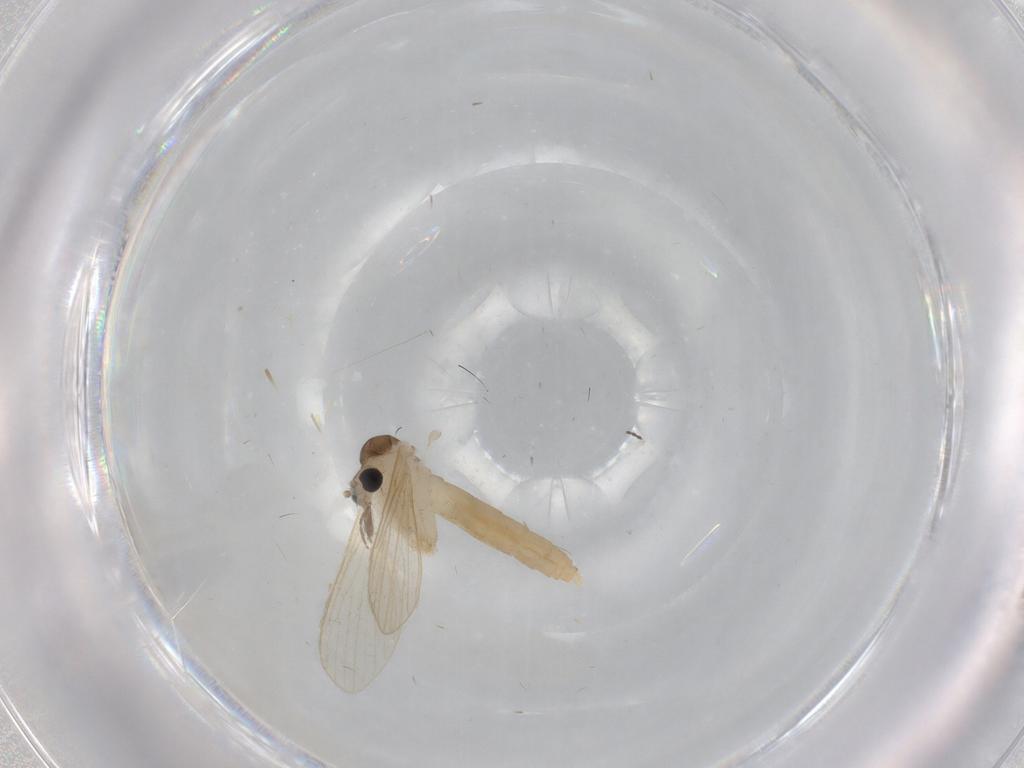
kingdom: Animalia
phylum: Arthropoda
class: Insecta
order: Diptera
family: Psychodidae
